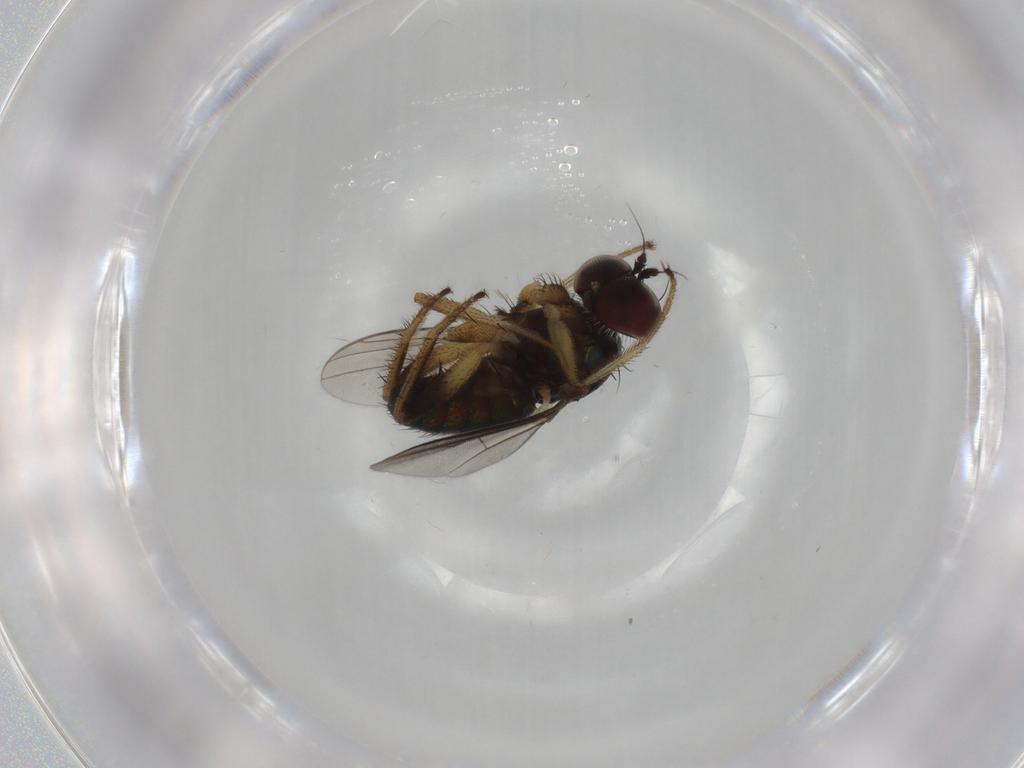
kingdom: Animalia
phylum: Arthropoda
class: Insecta
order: Diptera
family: Dolichopodidae
